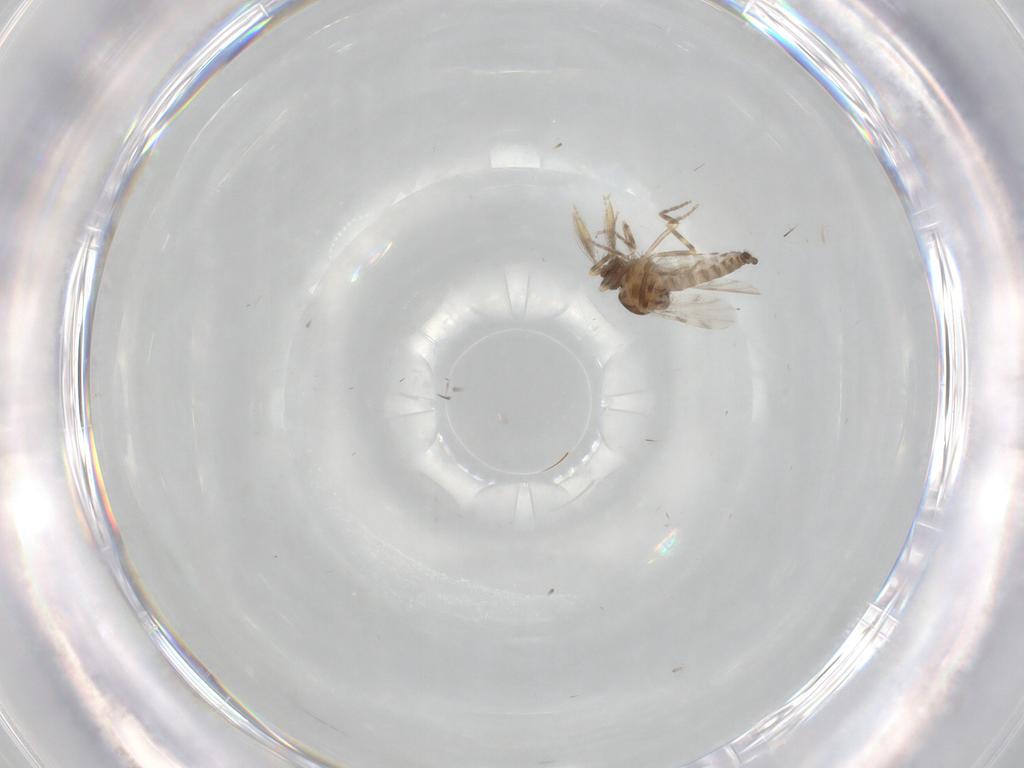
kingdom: Animalia
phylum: Arthropoda
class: Insecta
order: Diptera
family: Ceratopogonidae
